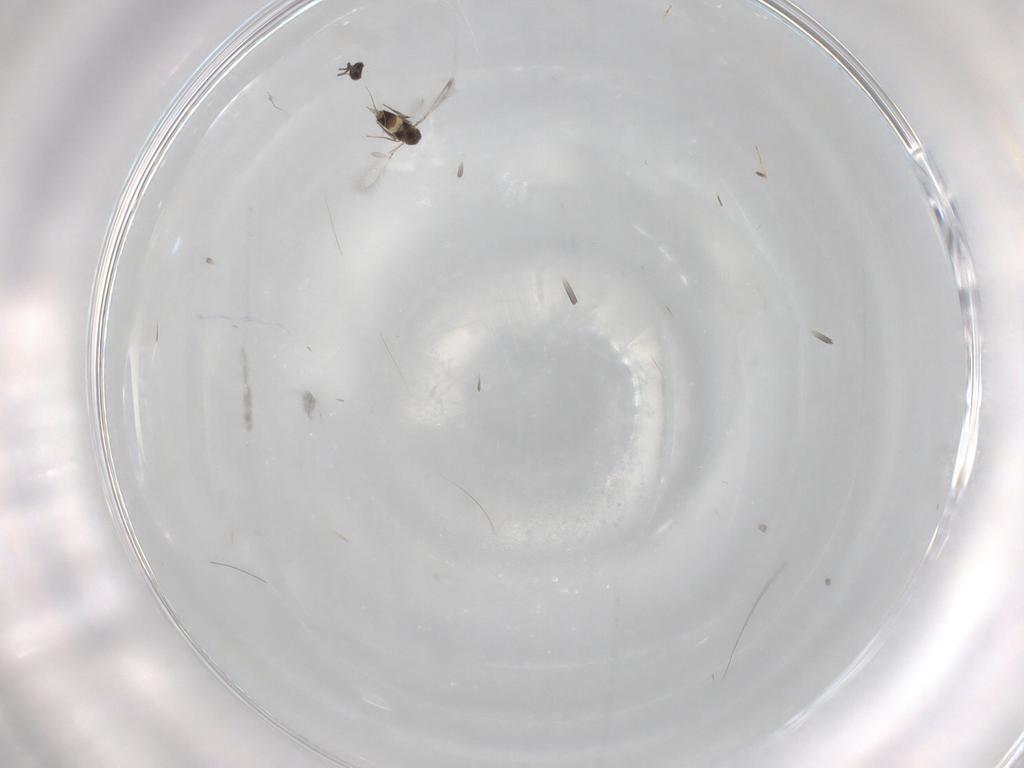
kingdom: Animalia
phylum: Arthropoda
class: Insecta
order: Hymenoptera
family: Mymaridae
